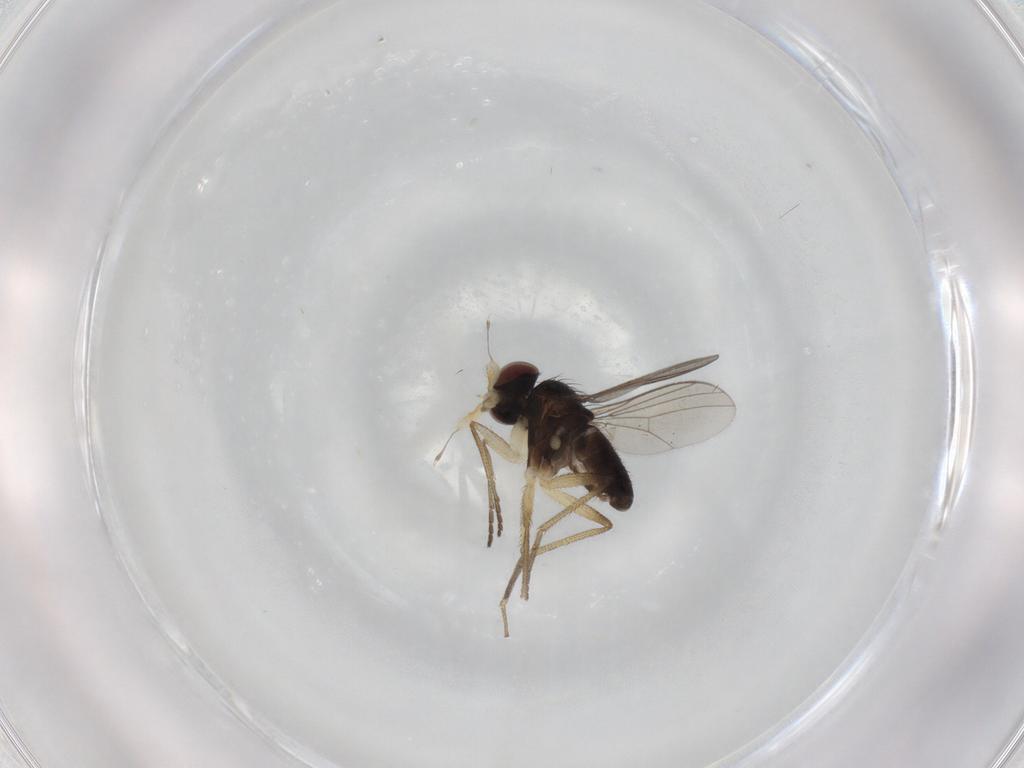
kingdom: Animalia
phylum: Arthropoda
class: Insecta
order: Diptera
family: Dolichopodidae
